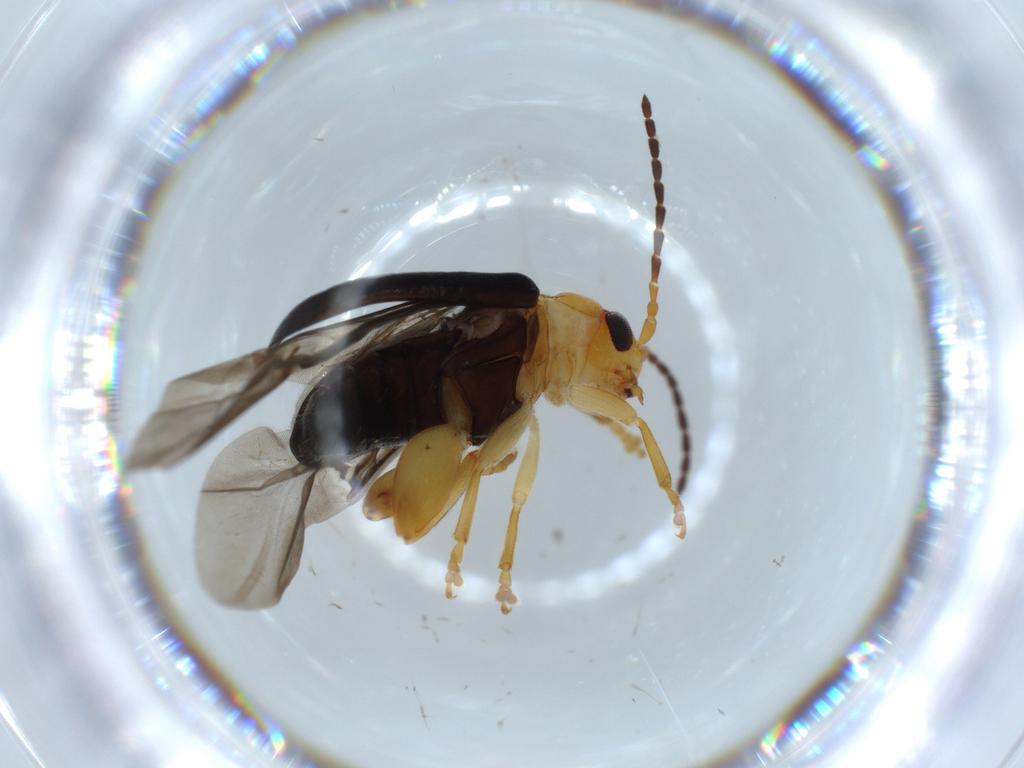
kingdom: Animalia
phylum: Arthropoda
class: Insecta
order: Coleoptera
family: Chrysomelidae
